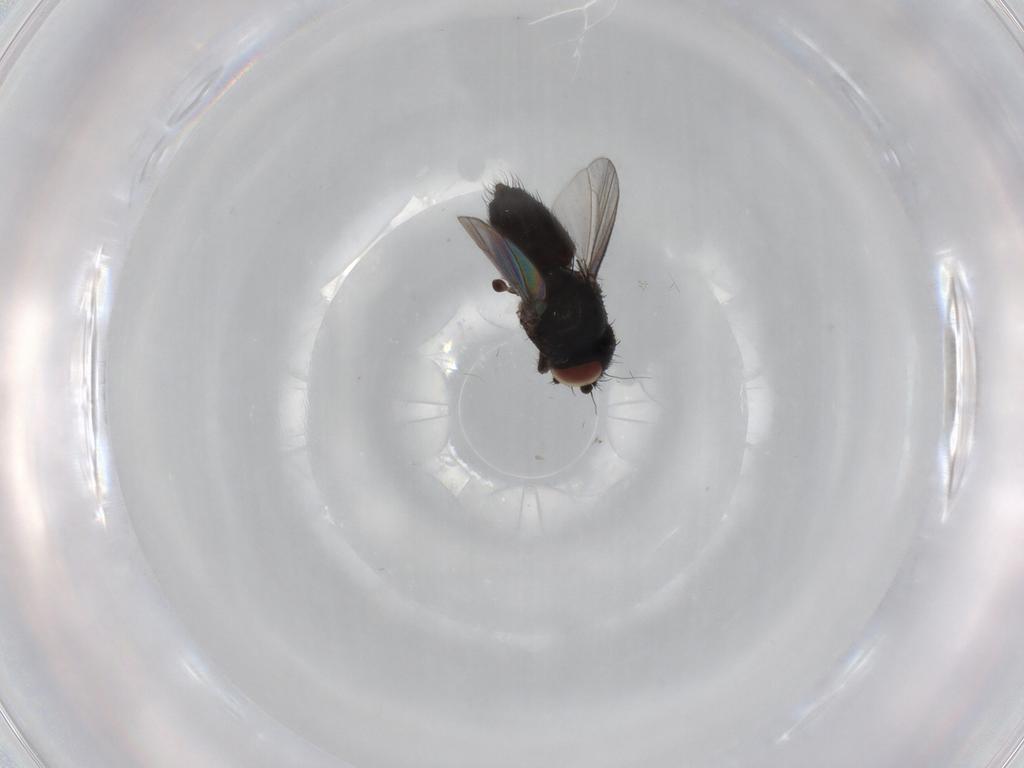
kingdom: Animalia
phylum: Arthropoda
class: Insecta
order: Diptera
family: Milichiidae
